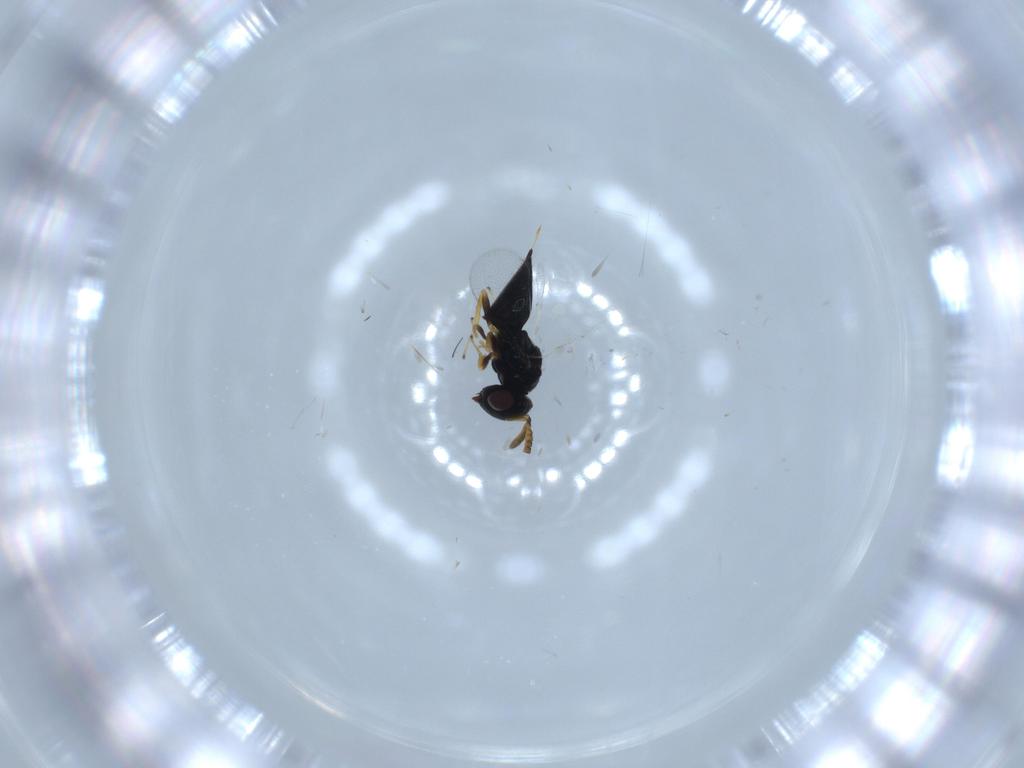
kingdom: Animalia
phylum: Arthropoda
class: Insecta
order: Hymenoptera
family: Pteromalidae
